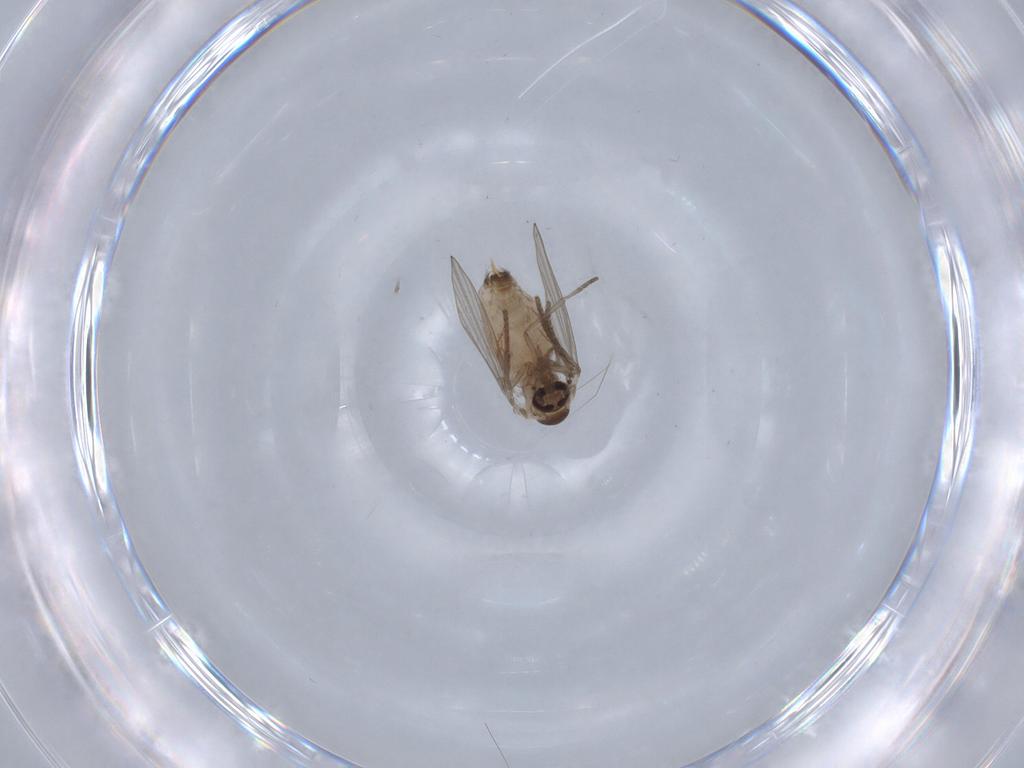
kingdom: Animalia
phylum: Arthropoda
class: Insecta
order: Diptera
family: Psychodidae
